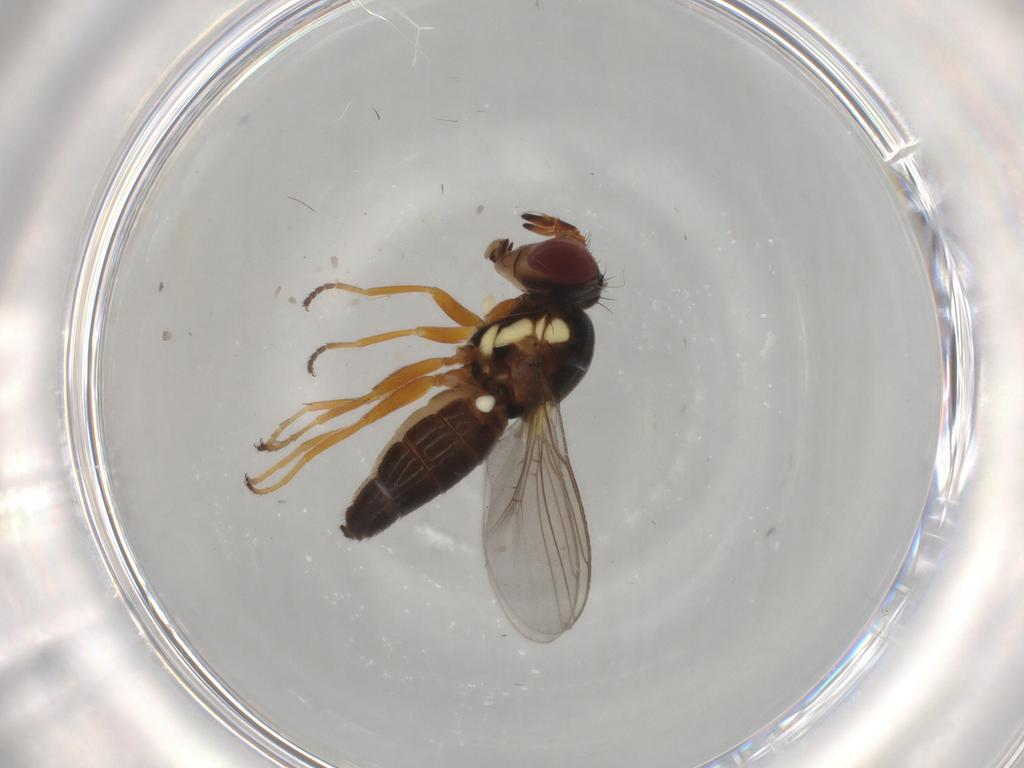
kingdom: Animalia
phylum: Arthropoda
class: Insecta
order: Diptera
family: Chloropidae
